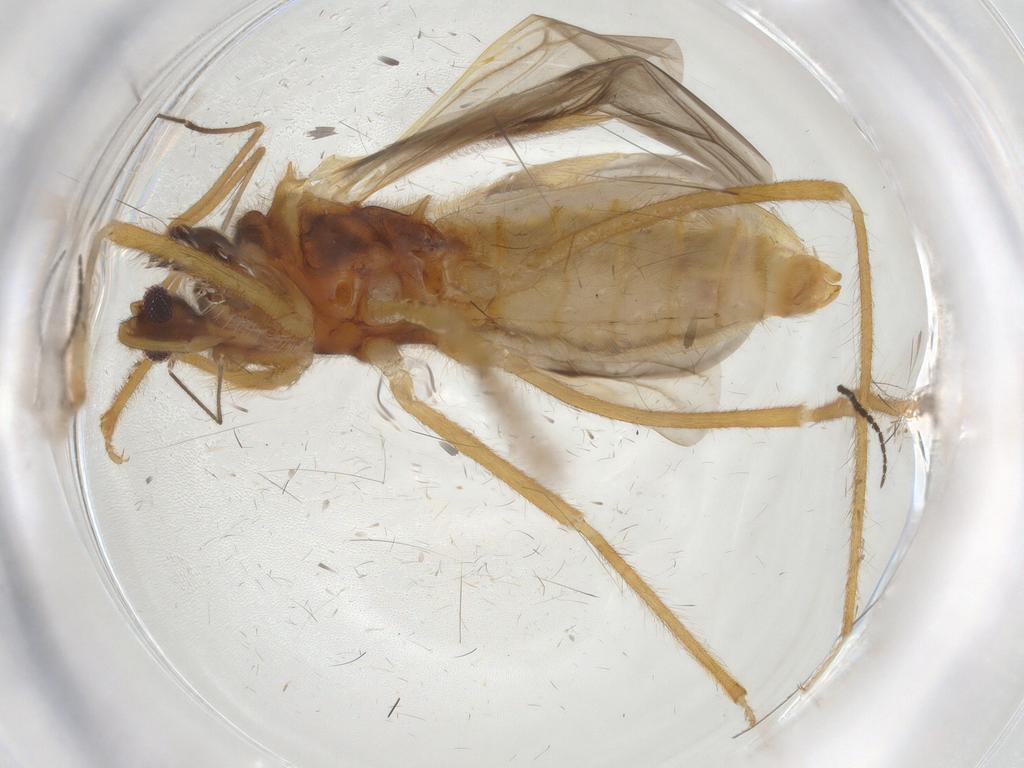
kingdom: Animalia
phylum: Arthropoda
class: Insecta
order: Hemiptera
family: Reduviidae
